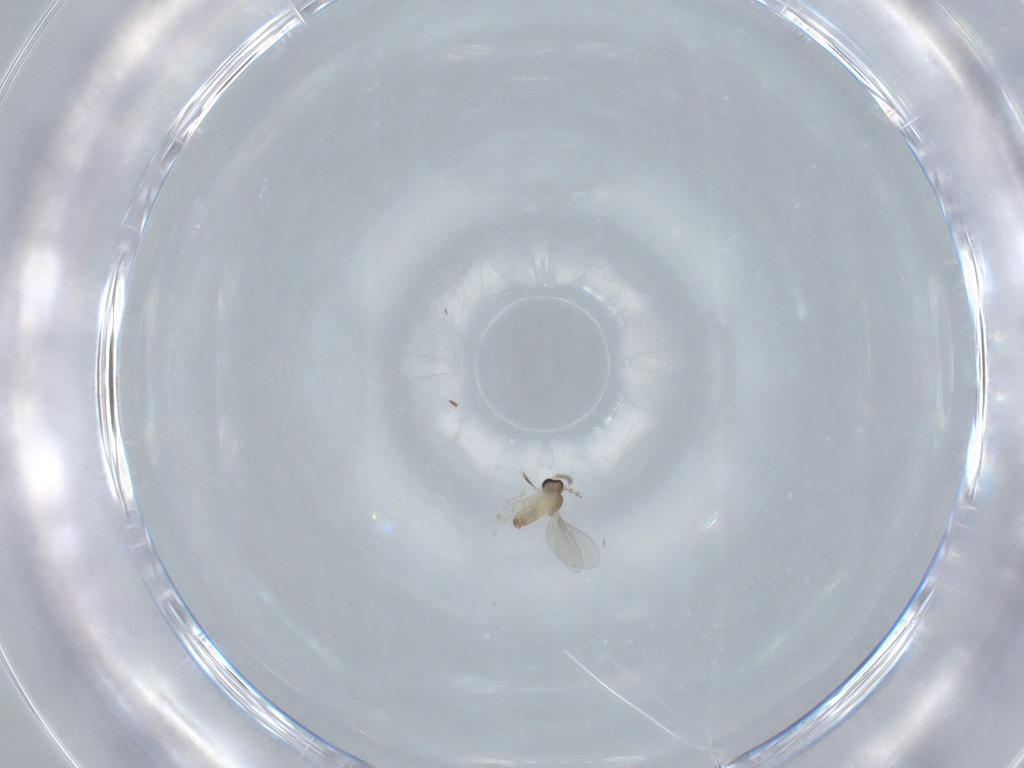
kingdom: Animalia
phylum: Arthropoda
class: Insecta
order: Diptera
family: Cecidomyiidae
